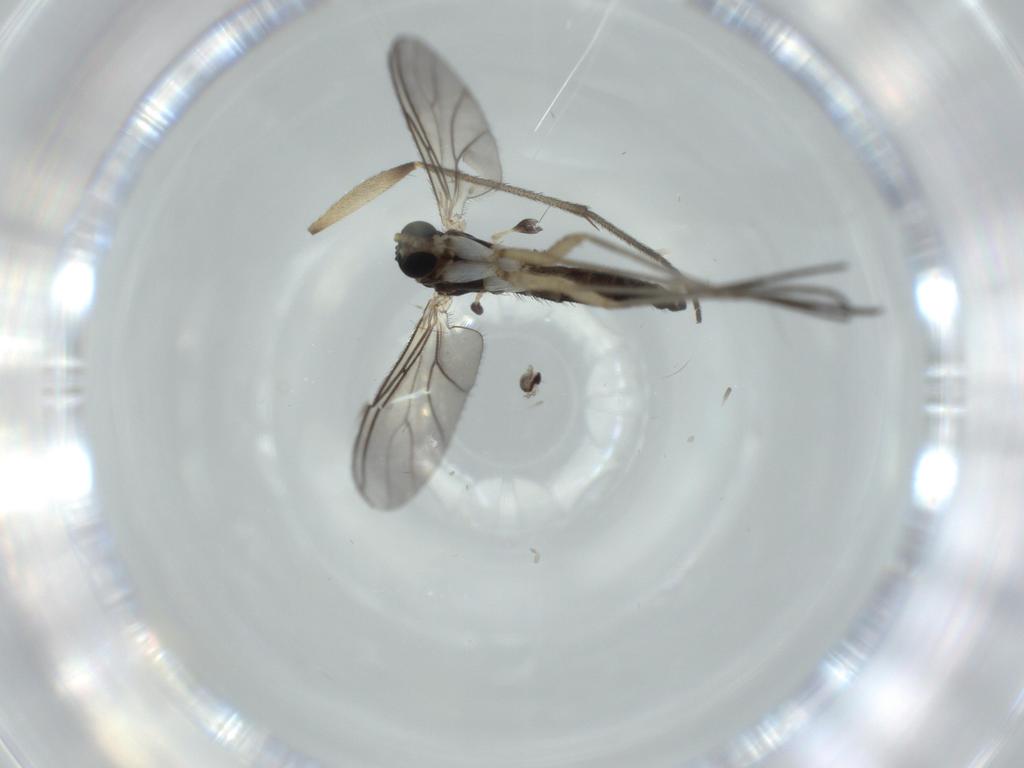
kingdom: Animalia
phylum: Arthropoda
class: Insecta
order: Diptera
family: Sciaridae
